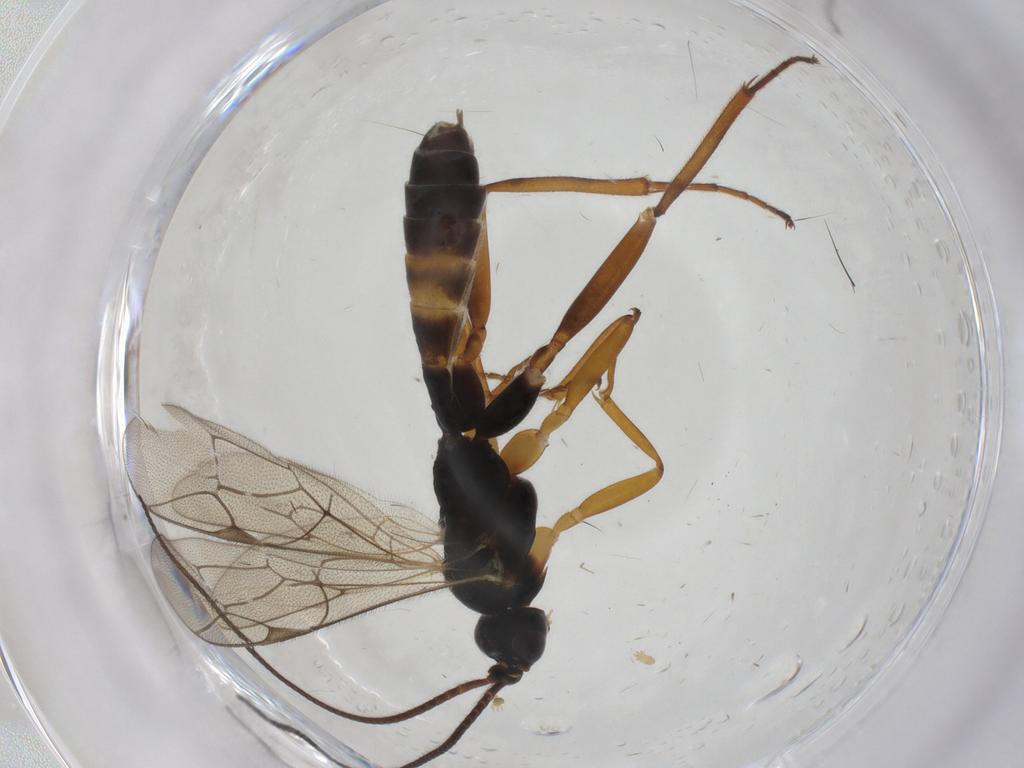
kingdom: Animalia
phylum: Arthropoda
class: Insecta
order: Hymenoptera
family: Ichneumonidae
